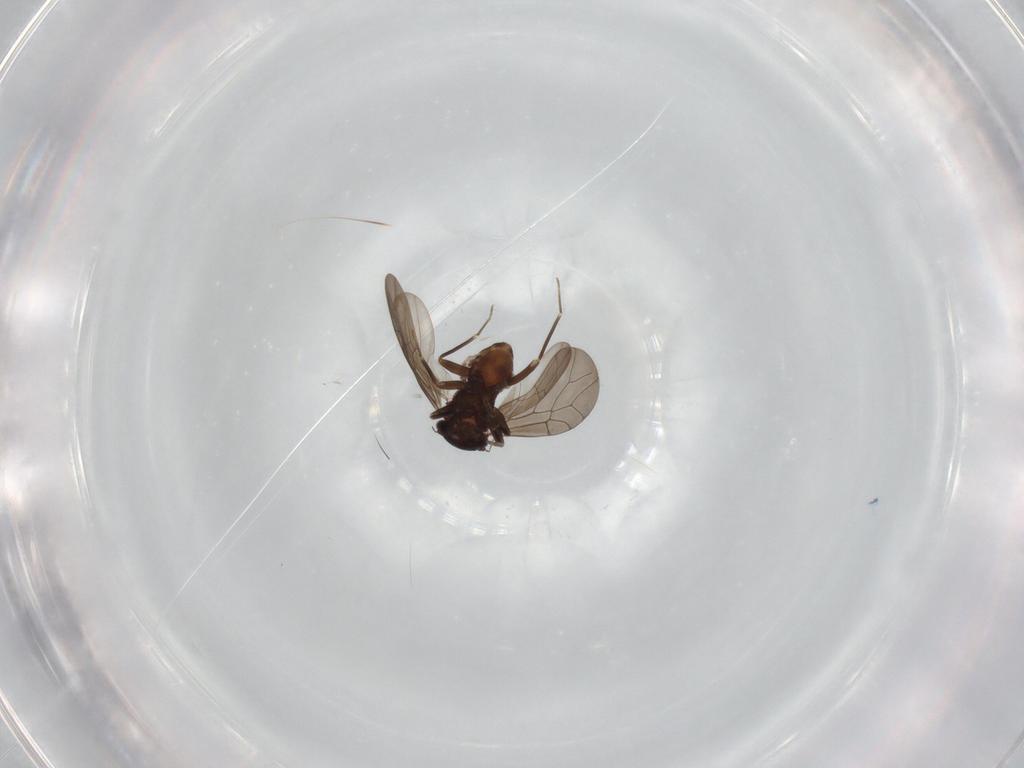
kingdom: Animalia
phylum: Arthropoda
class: Insecta
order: Psocodea
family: Lepidopsocidae
